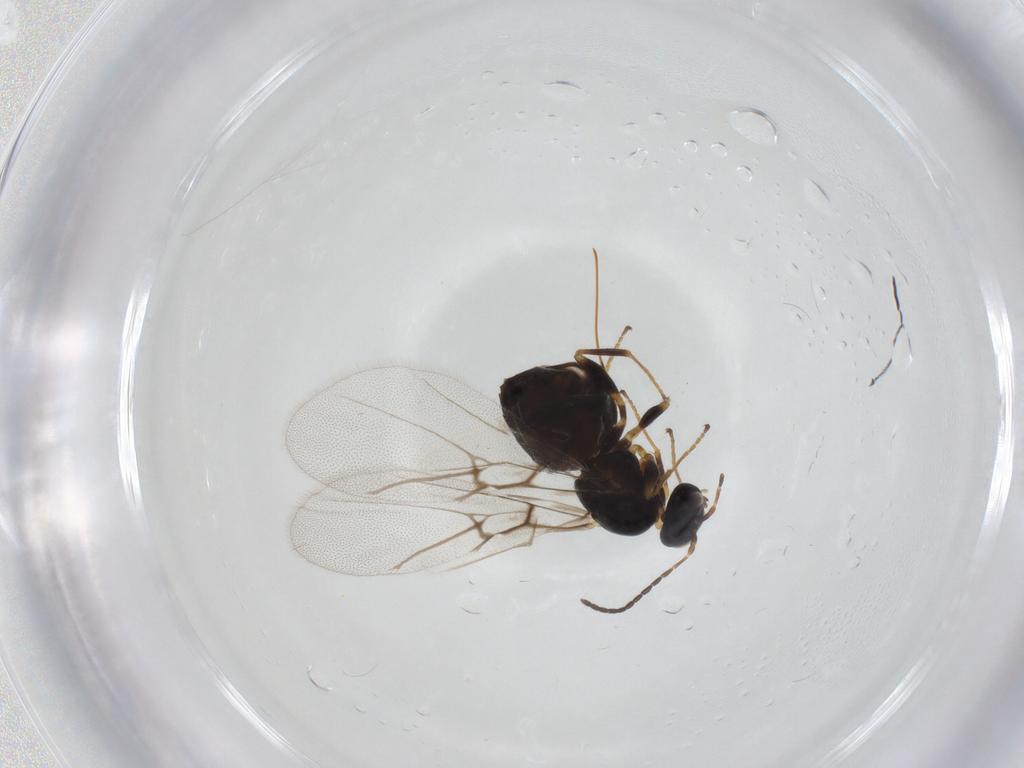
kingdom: Animalia
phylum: Arthropoda
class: Insecta
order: Hymenoptera
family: Cynipidae
